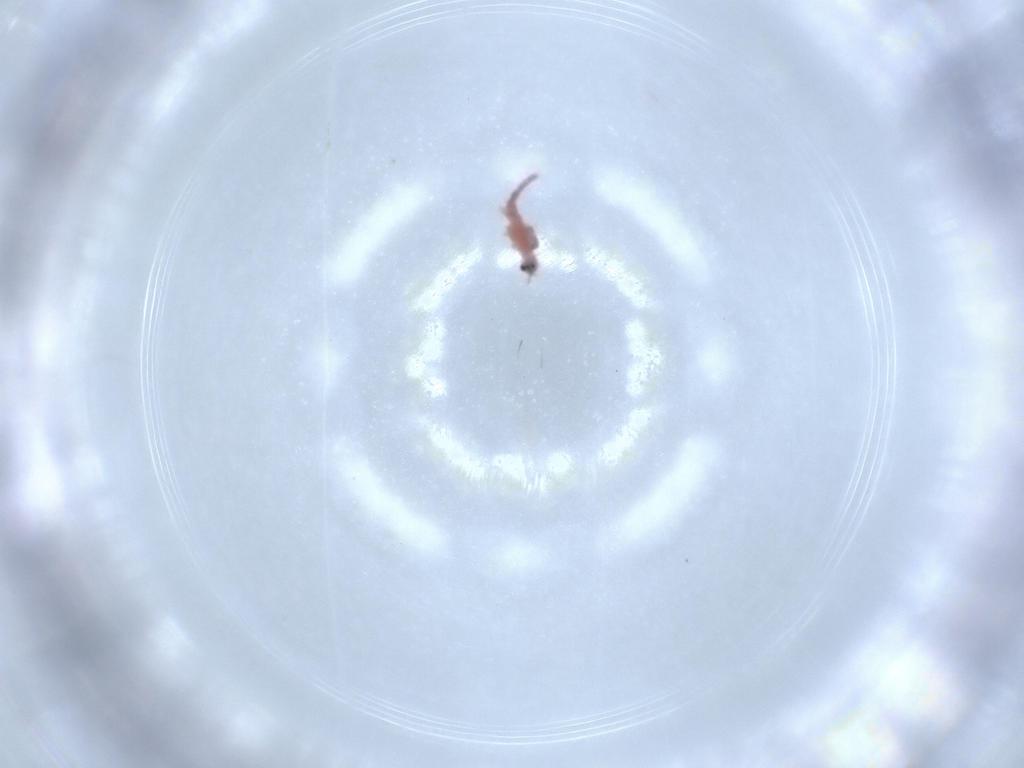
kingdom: Animalia
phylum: Arthropoda
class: Insecta
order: Hemiptera
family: Pseudococcidae
